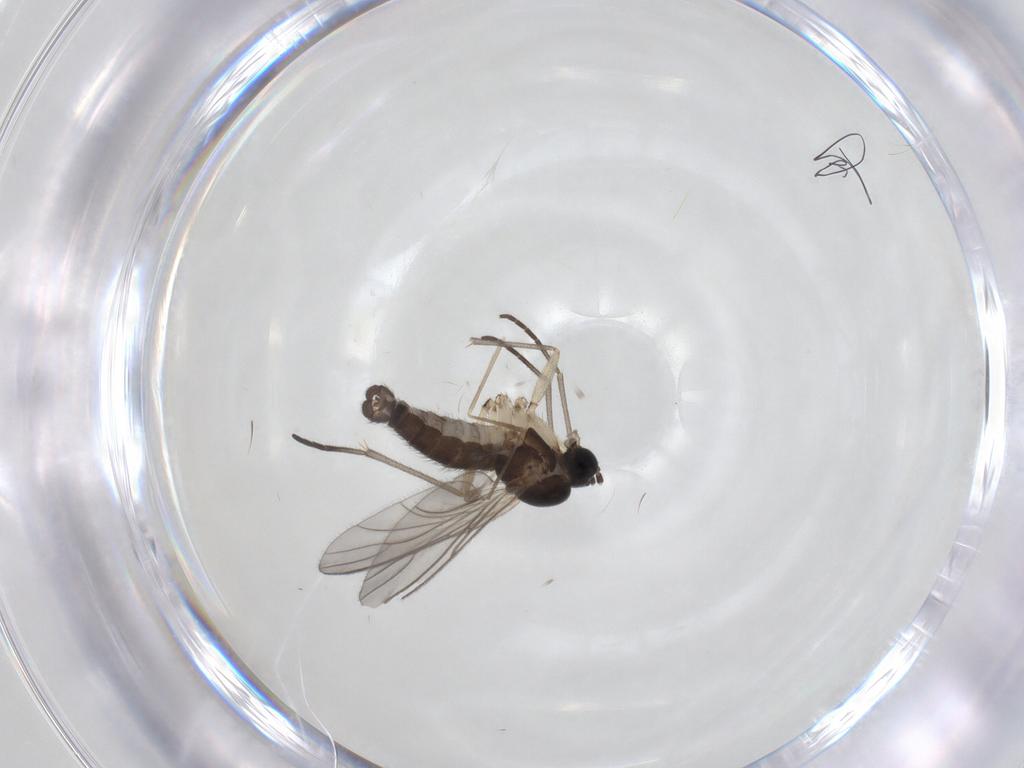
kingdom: Animalia
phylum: Arthropoda
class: Insecta
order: Diptera
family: Sciaridae
